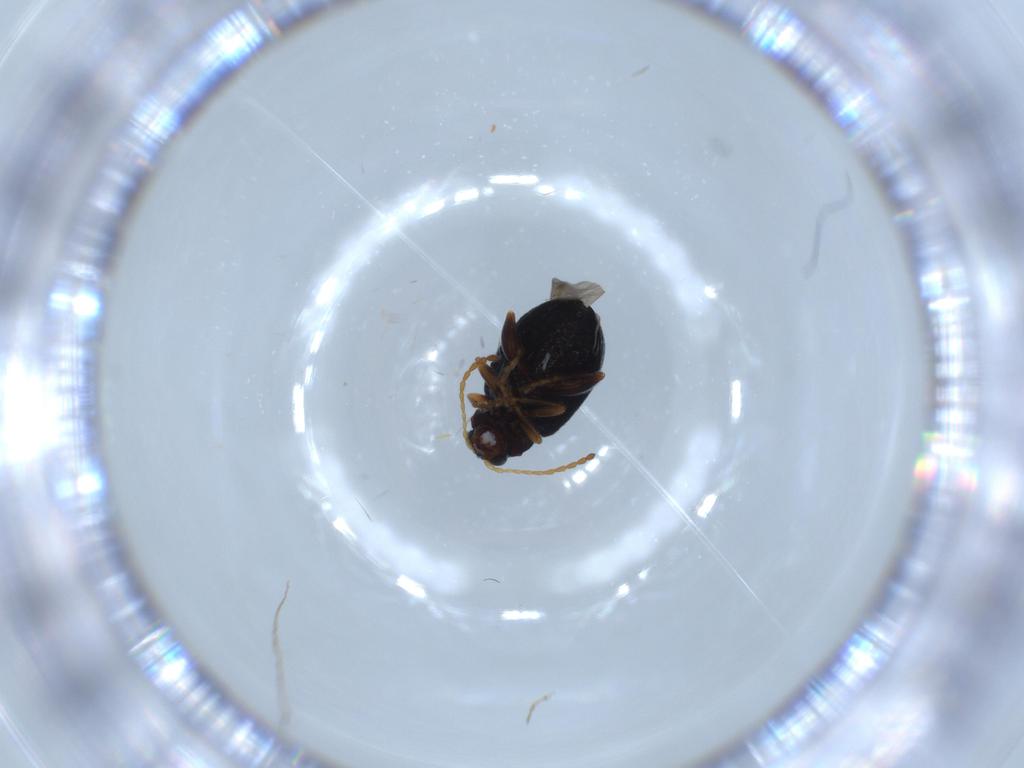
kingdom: Animalia
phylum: Arthropoda
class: Insecta
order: Coleoptera
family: Chrysomelidae
